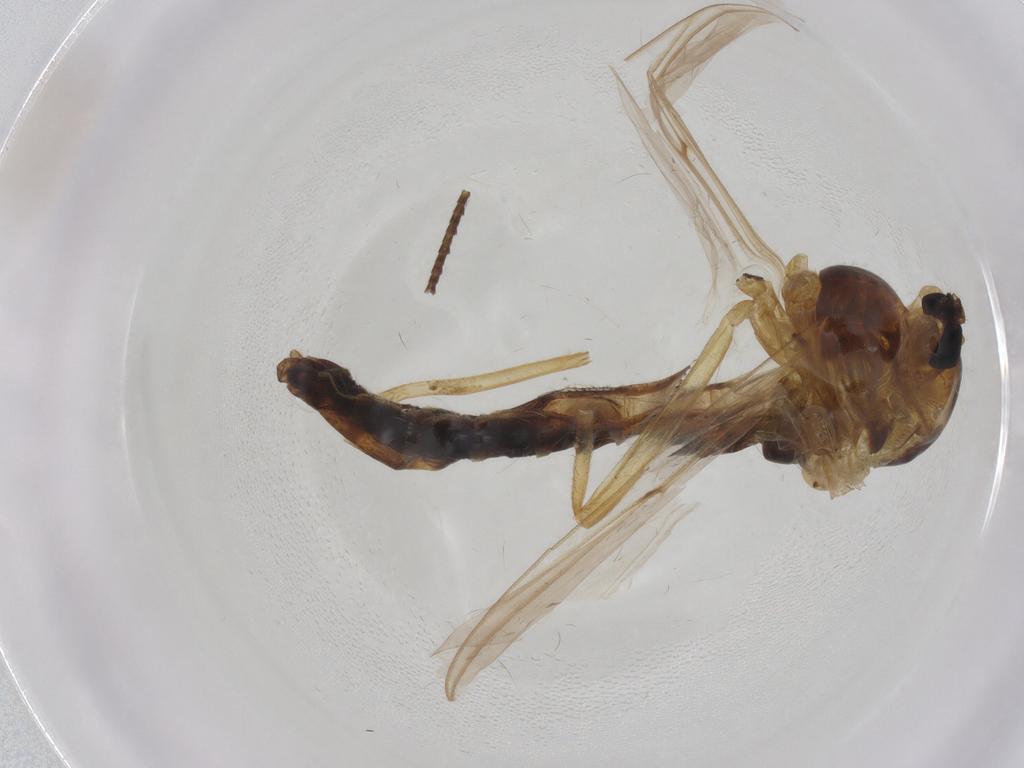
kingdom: Animalia
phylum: Arthropoda
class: Insecta
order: Diptera
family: Chironomidae
